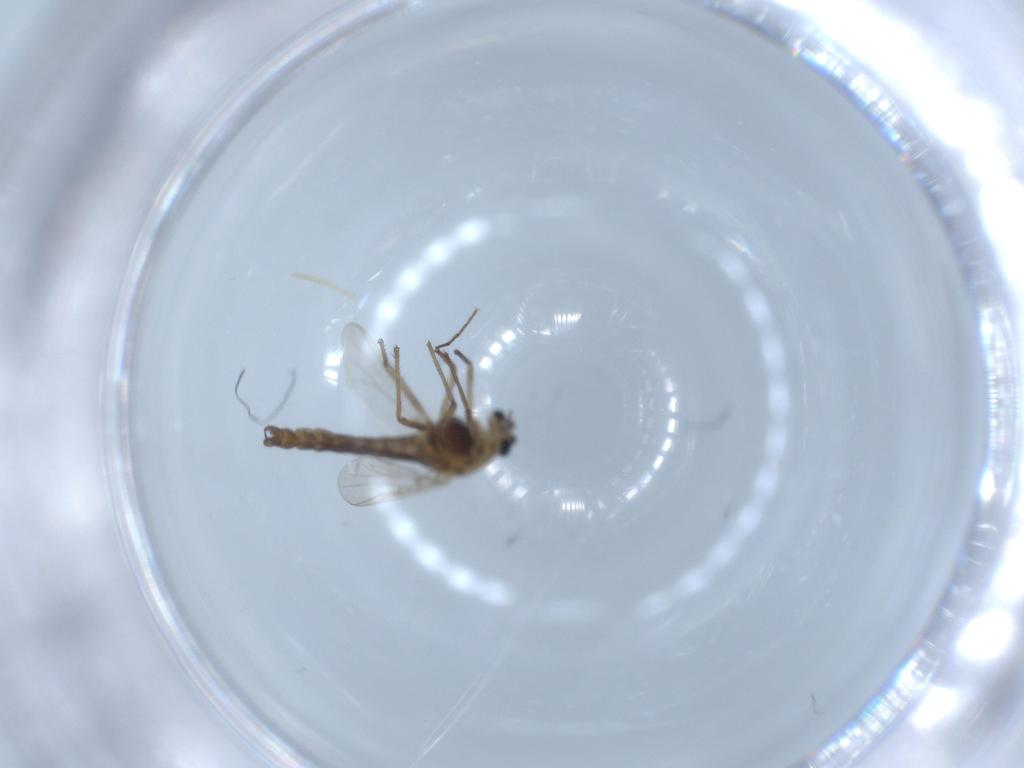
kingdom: Animalia
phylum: Arthropoda
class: Insecta
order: Diptera
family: Chironomidae
